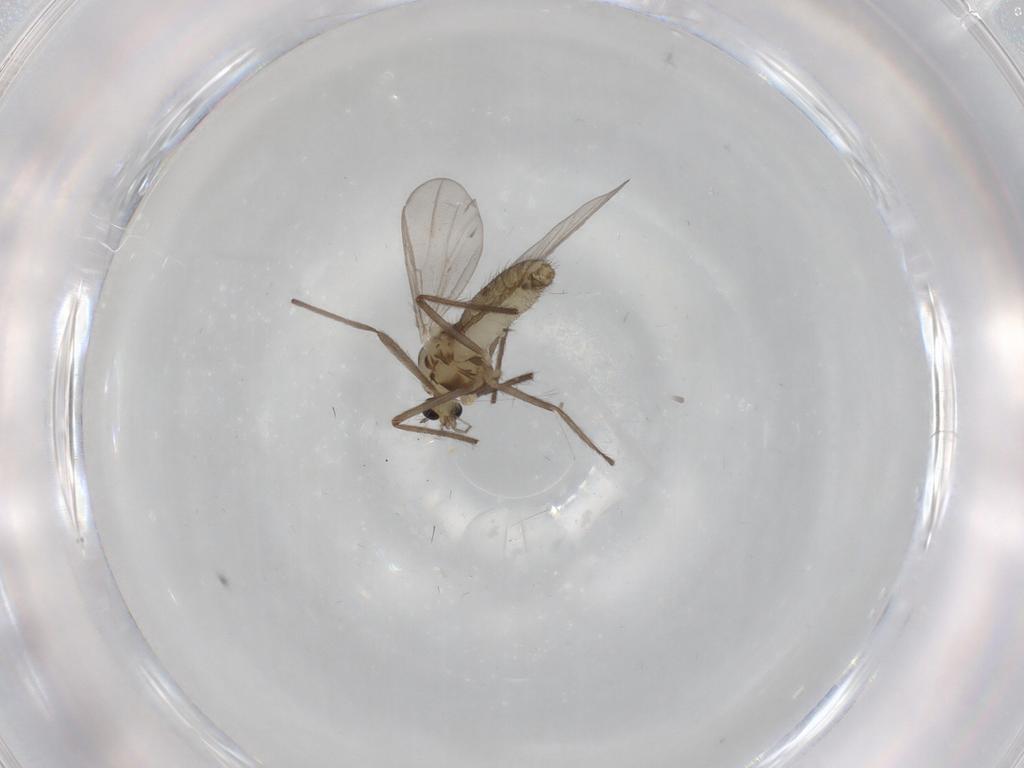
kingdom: Animalia
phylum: Arthropoda
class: Insecta
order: Diptera
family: Chironomidae
